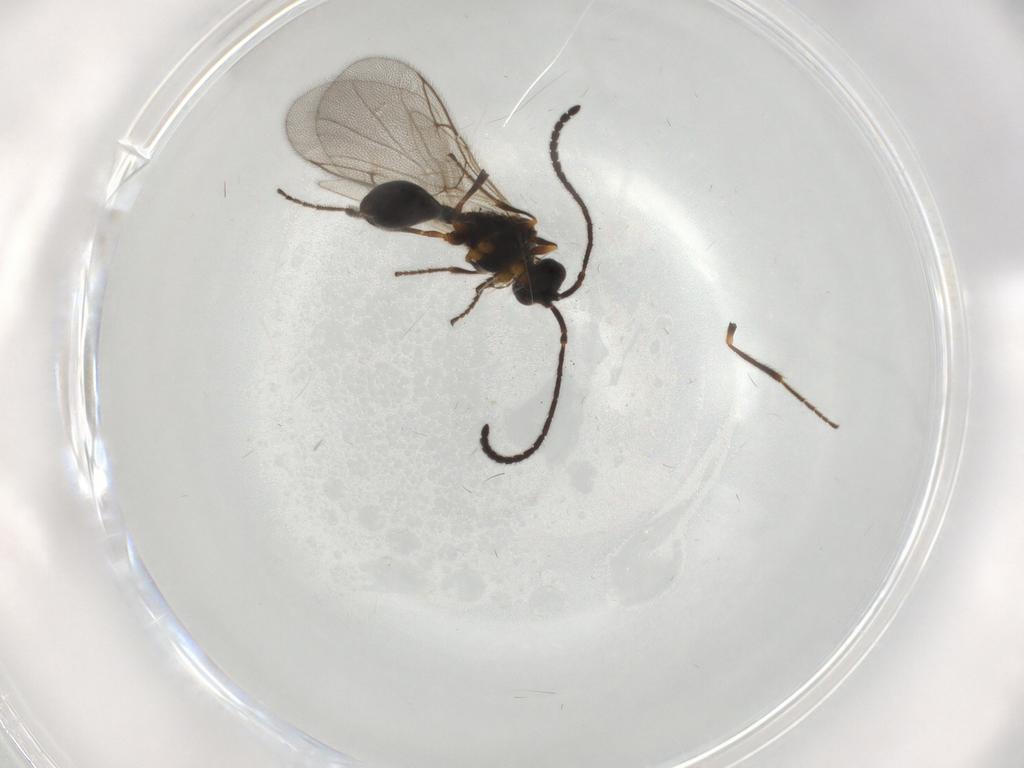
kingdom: Animalia
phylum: Arthropoda
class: Insecta
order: Hymenoptera
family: Diapriidae
